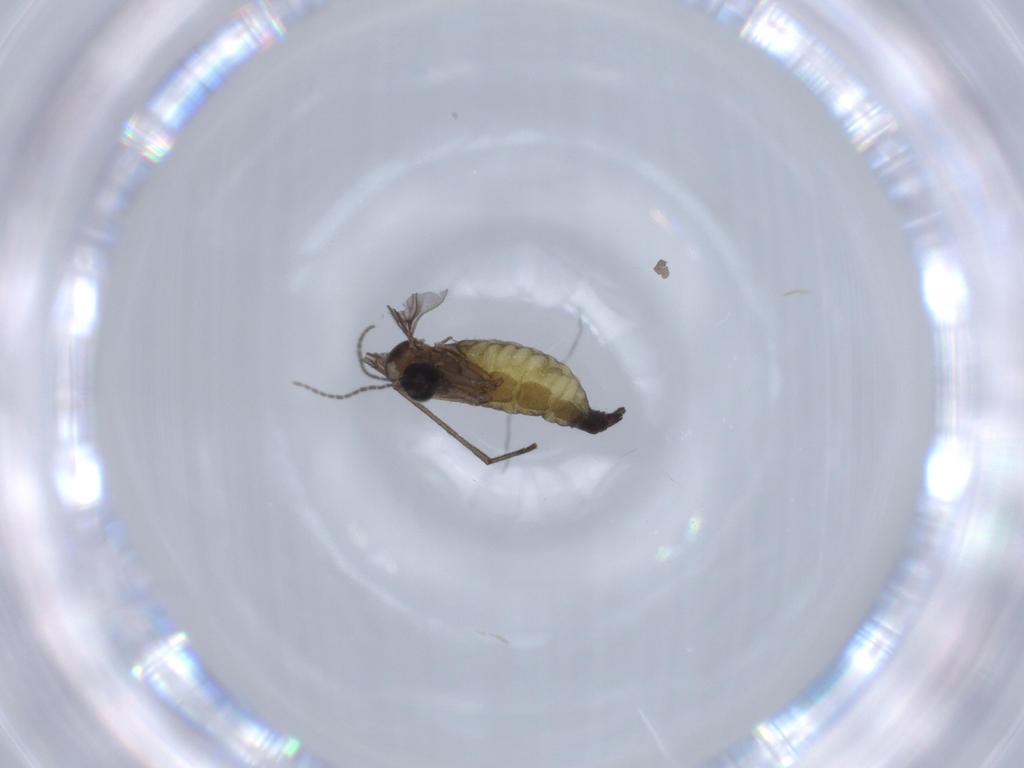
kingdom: Animalia
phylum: Arthropoda
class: Insecta
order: Diptera
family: Sciaridae
